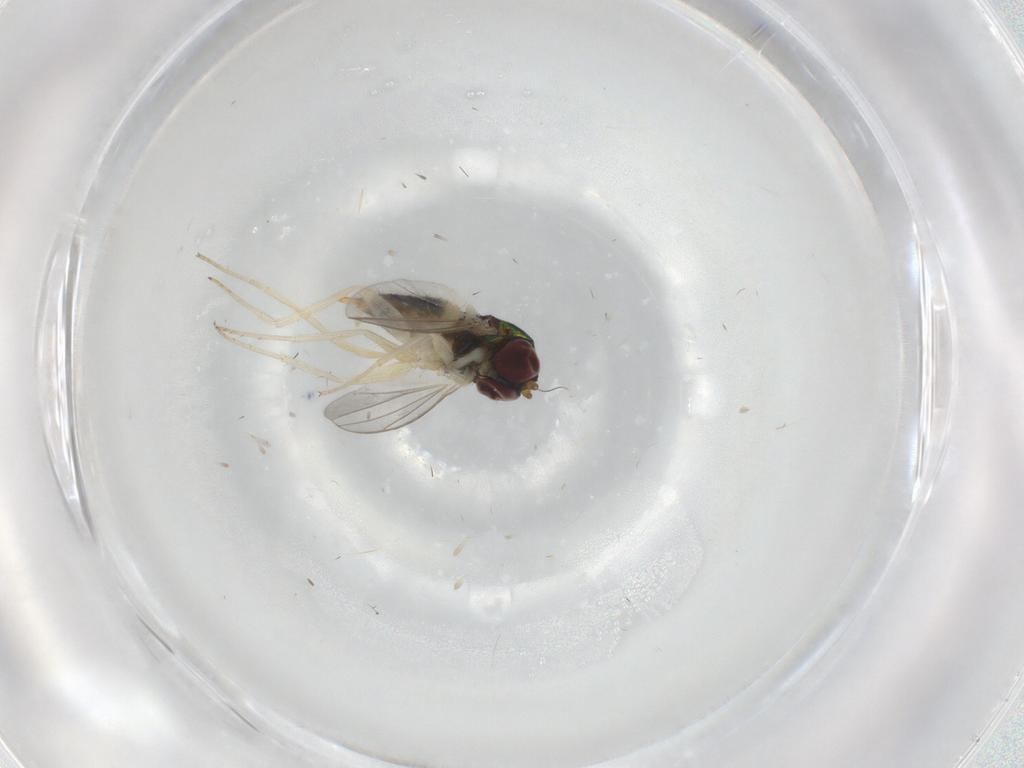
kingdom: Animalia
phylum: Arthropoda
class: Insecta
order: Diptera
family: Dolichopodidae
